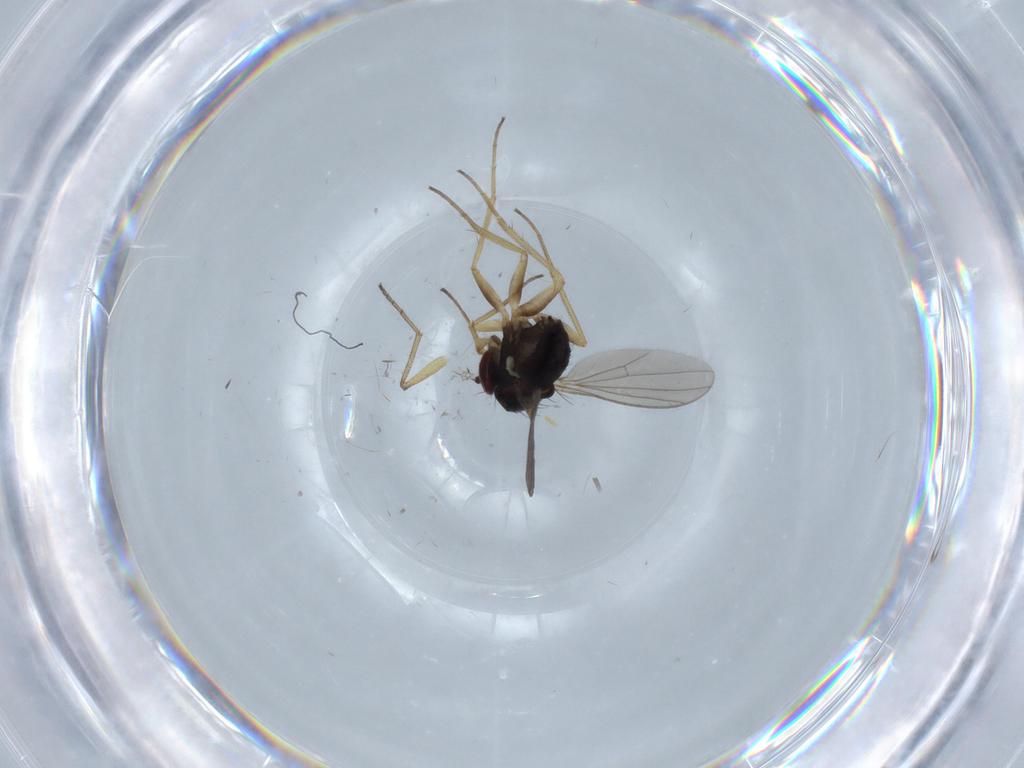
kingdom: Animalia
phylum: Arthropoda
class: Insecta
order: Diptera
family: Dolichopodidae
